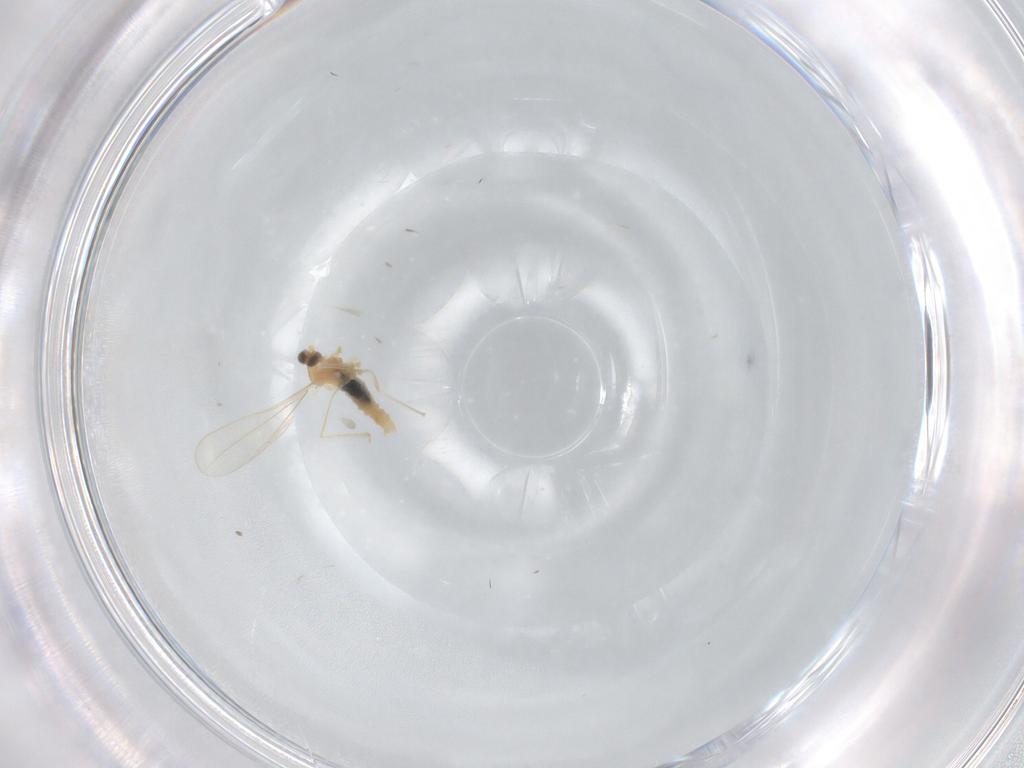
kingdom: Animalia
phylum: Arthropoda
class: Insecta
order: Diptera
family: Cecidomyiidae
